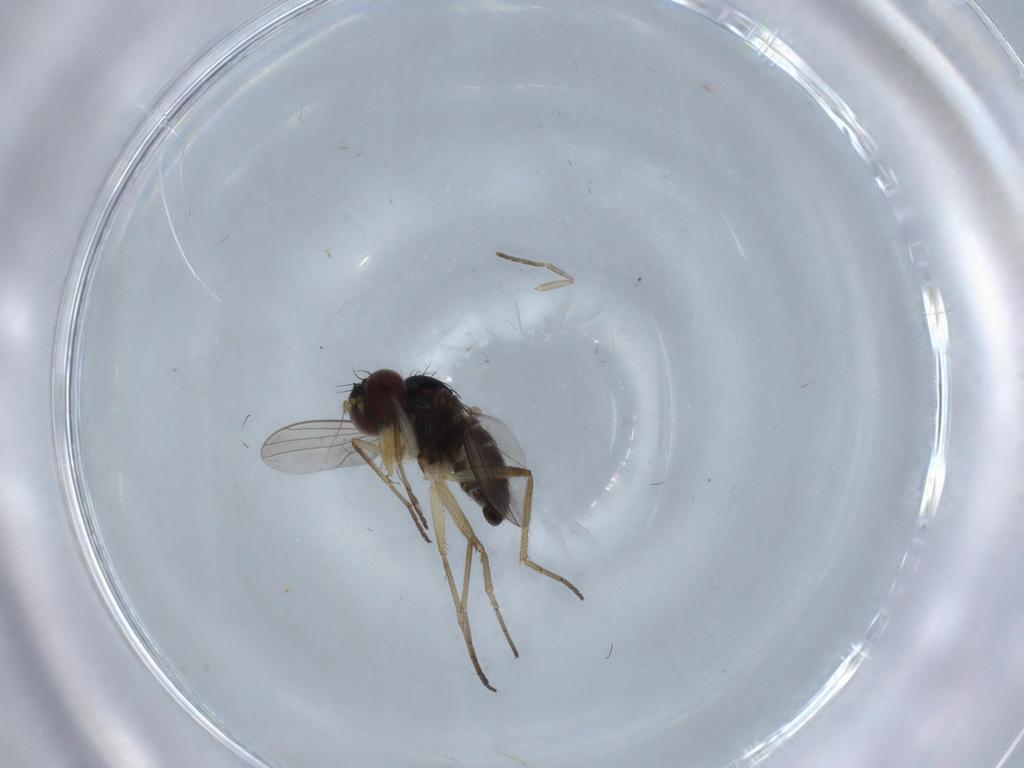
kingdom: Animalia
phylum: Arthropoda
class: Insecta
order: Diptera
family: Dolichopodidae
